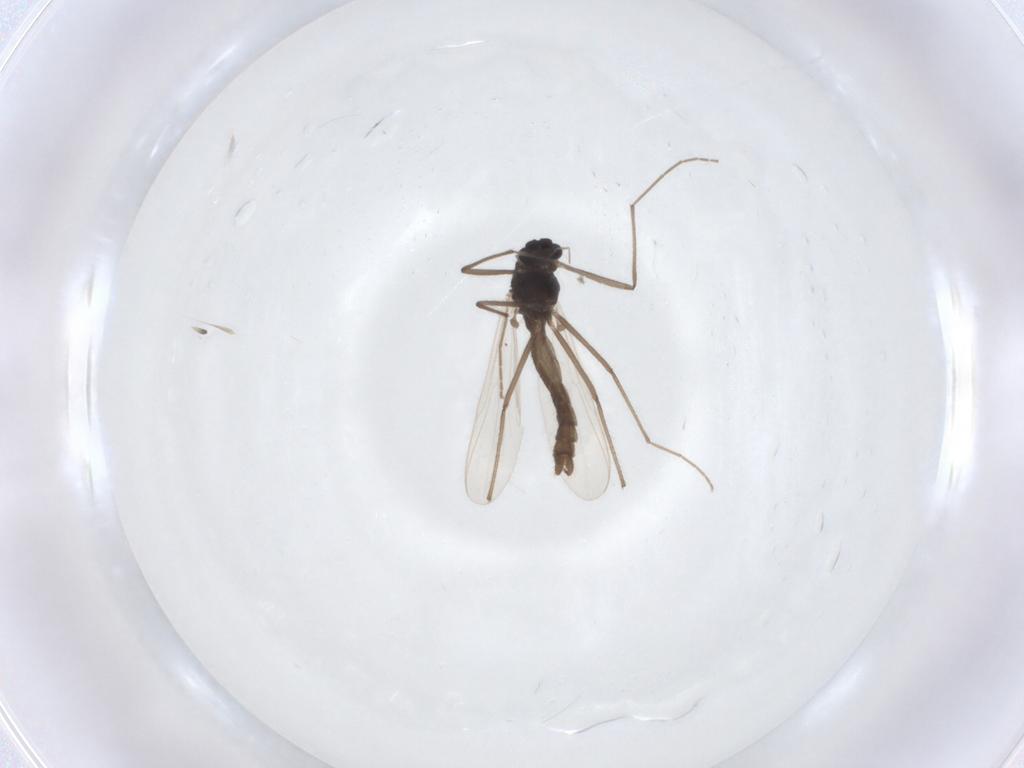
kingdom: Animalia
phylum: Arthropoda
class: Insecta
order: Diptera
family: Chironomidae
